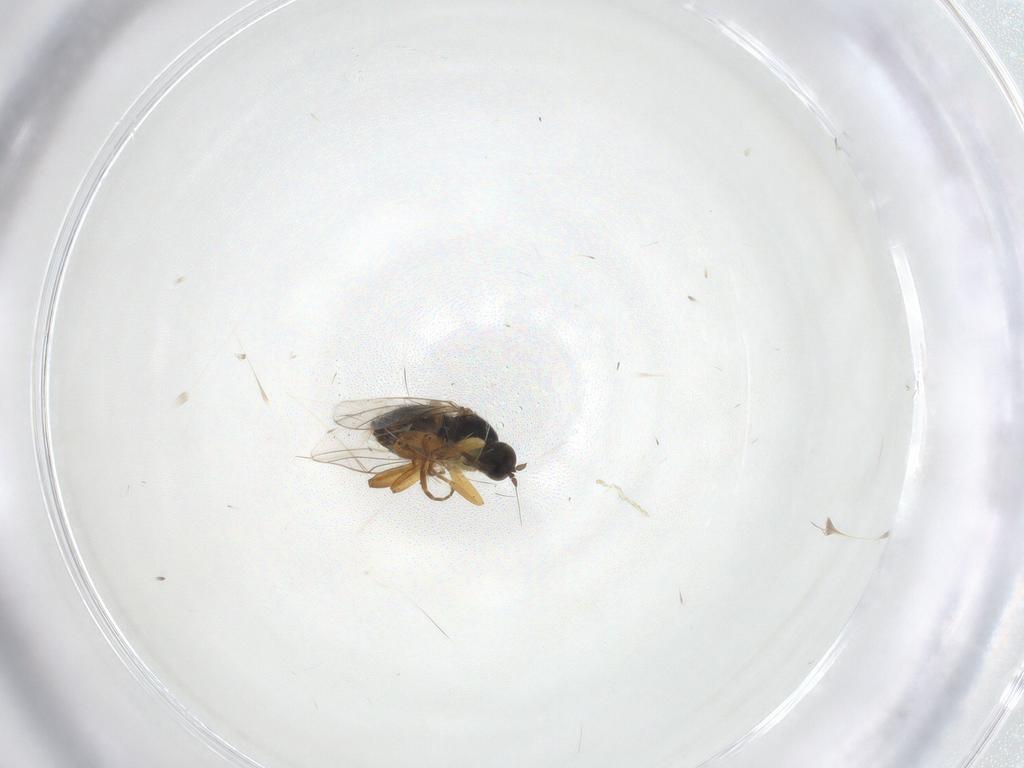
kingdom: Animalia
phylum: Arthropoda
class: Insecta
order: Diptera
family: Hybotidae
